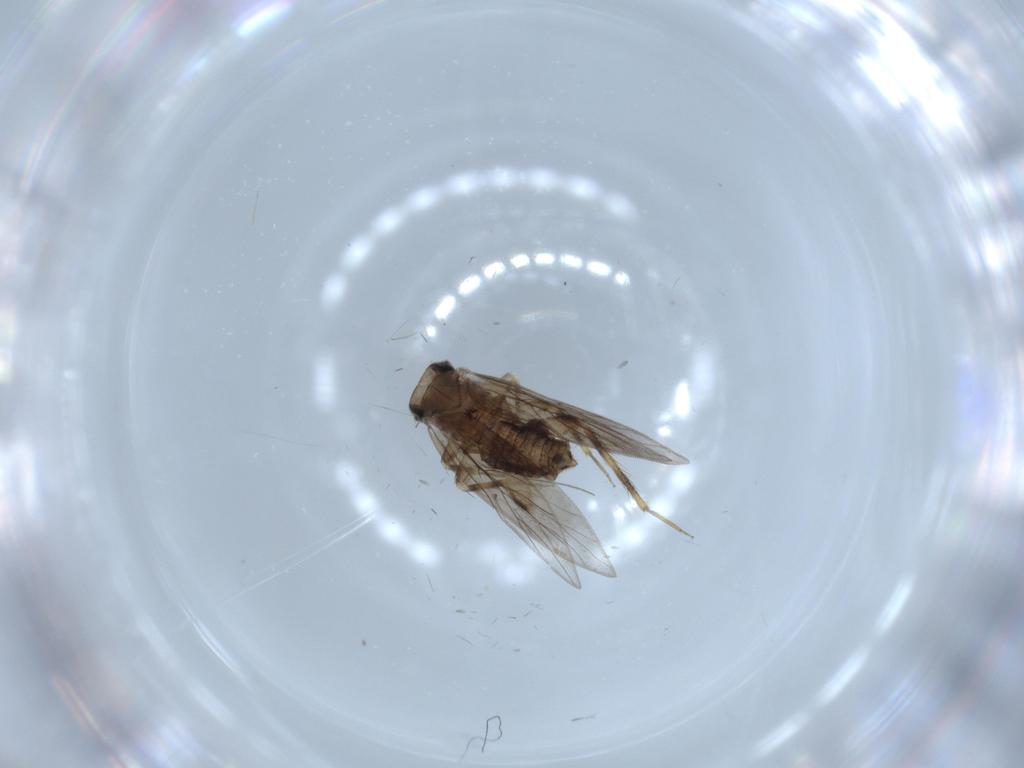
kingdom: Animalia
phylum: Arthropoda
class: Insecta
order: Psocodea
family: Lepidopsocidae
